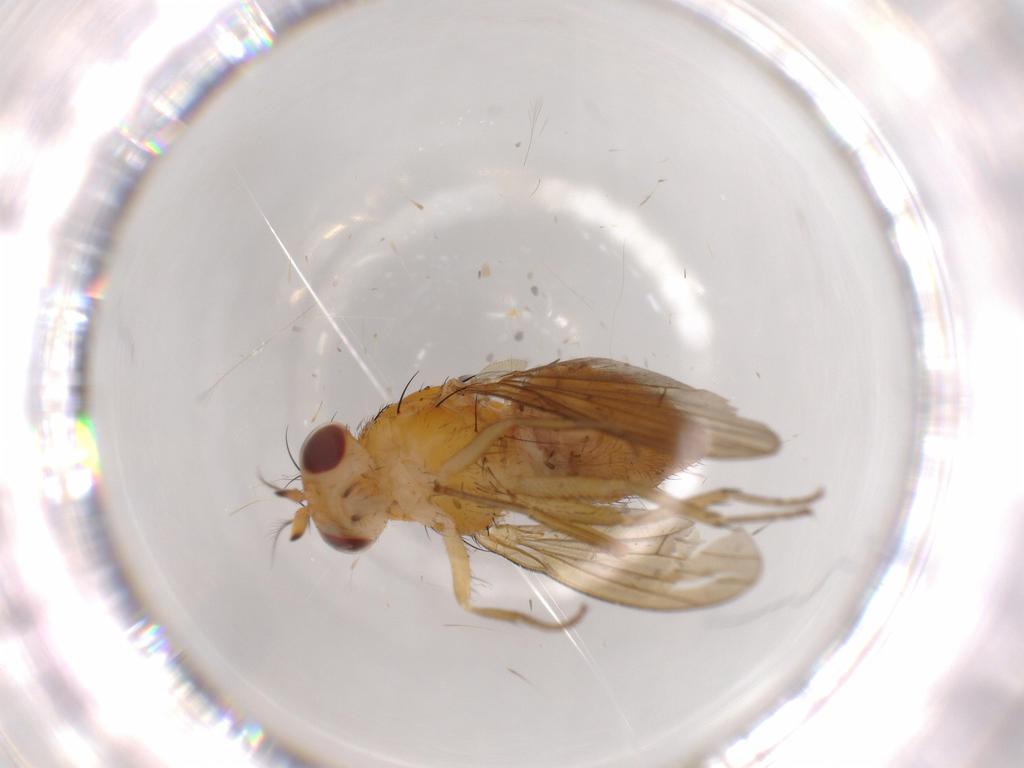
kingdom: Animalia
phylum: Arthropoda
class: Insecta
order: Diptera
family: Lauxaniidae
